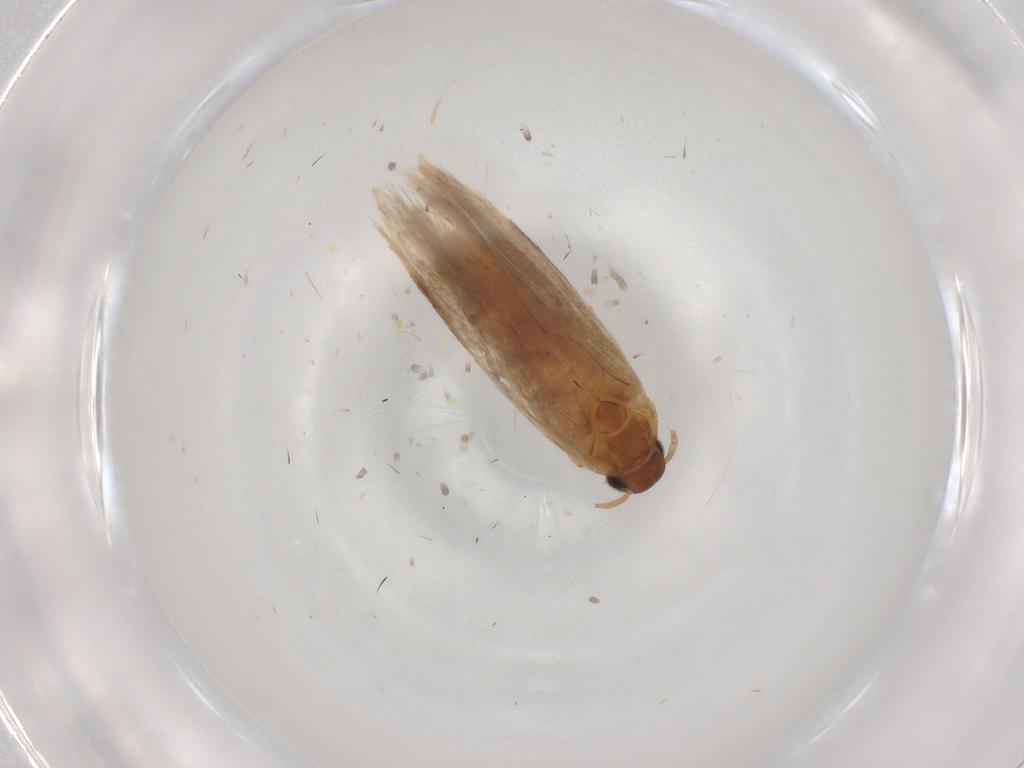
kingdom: Animalia
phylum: Arthropoda
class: Insecta
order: Lepidoptera
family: Gelechiidae
